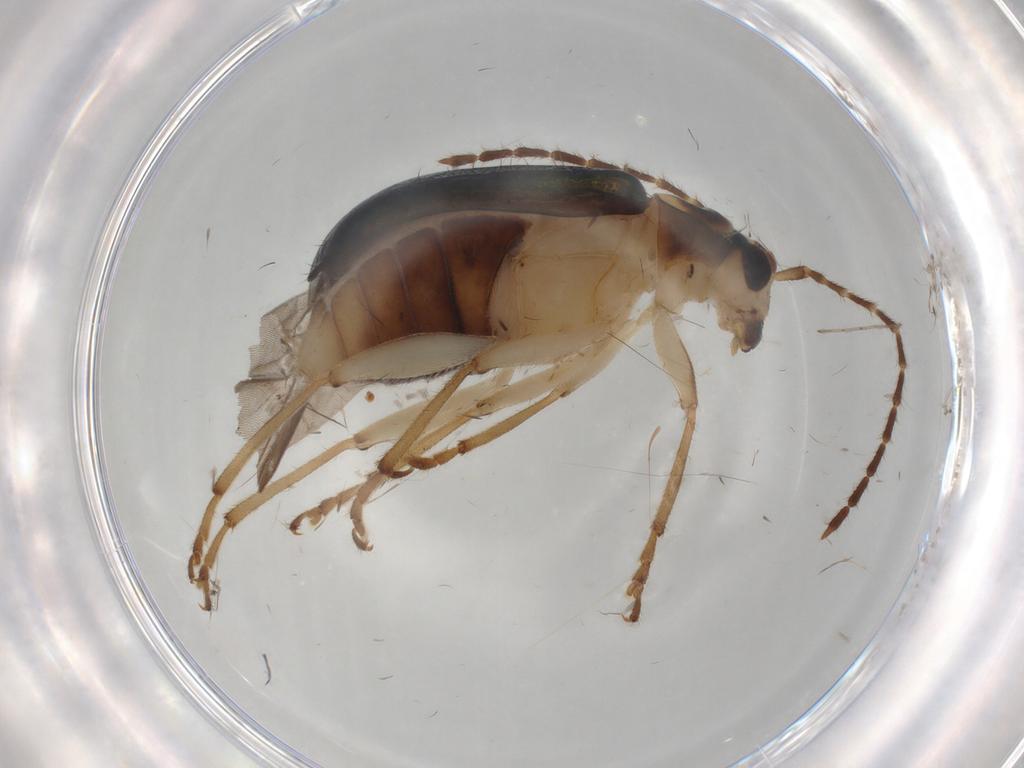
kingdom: Animalia
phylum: Arthropoda
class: Insecta
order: Coleoptera
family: Chrysomelidae
